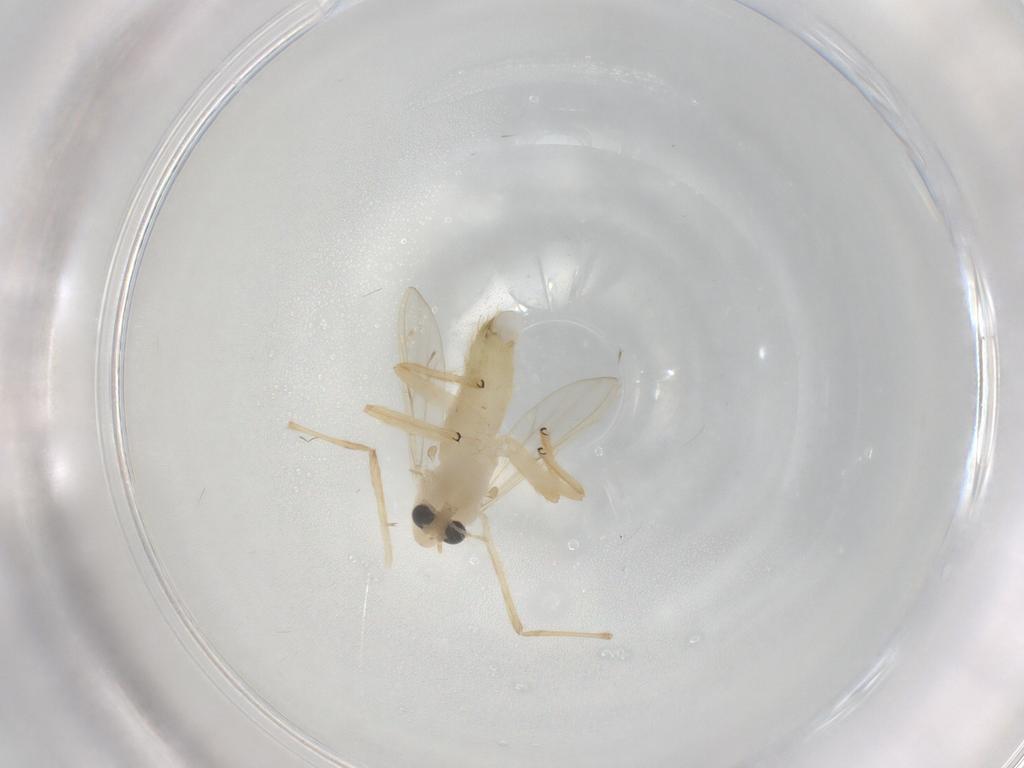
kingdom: Animalia
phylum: Arthropoda
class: Insecta
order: Diptera
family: Chironomidae
